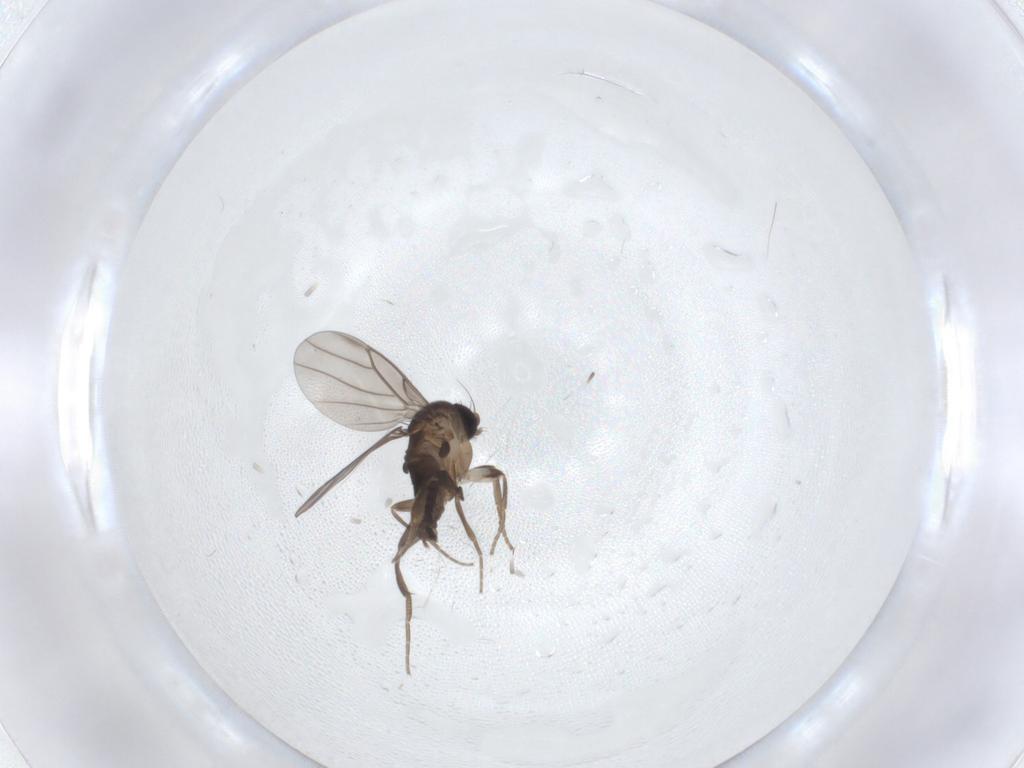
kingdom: Animalia
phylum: Arthropoda
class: Insecta
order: Diptera
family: Psychodidae
